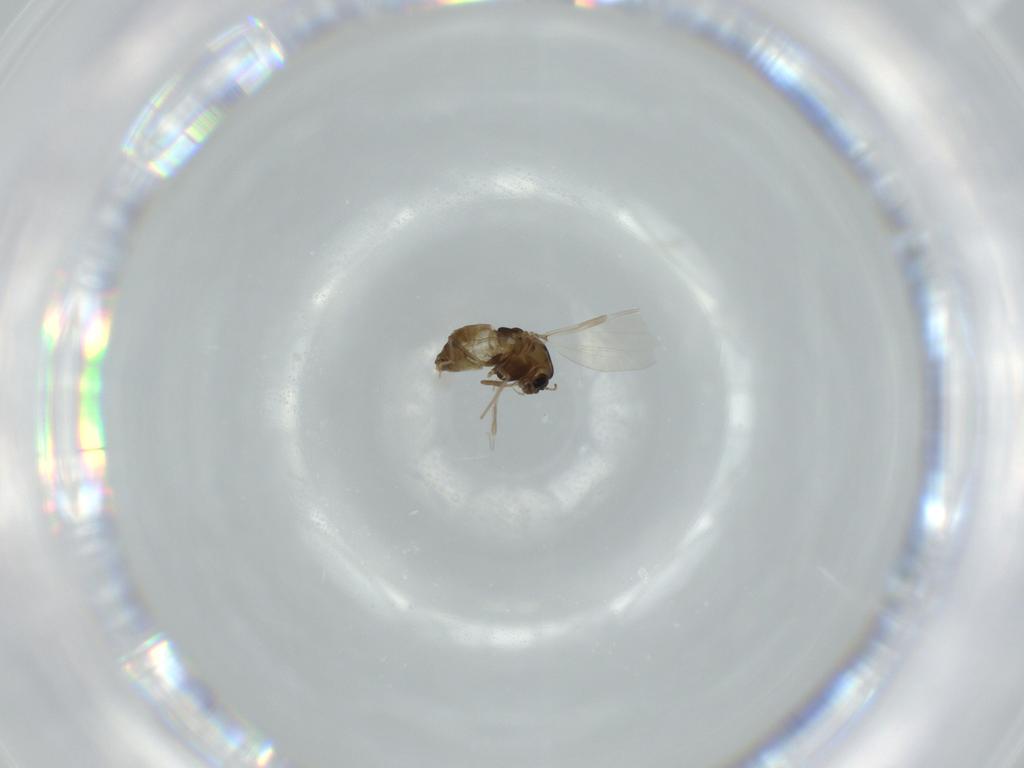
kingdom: Animalia
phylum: Arthropoda
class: Insecta
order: Diptera
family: Chironomidae
